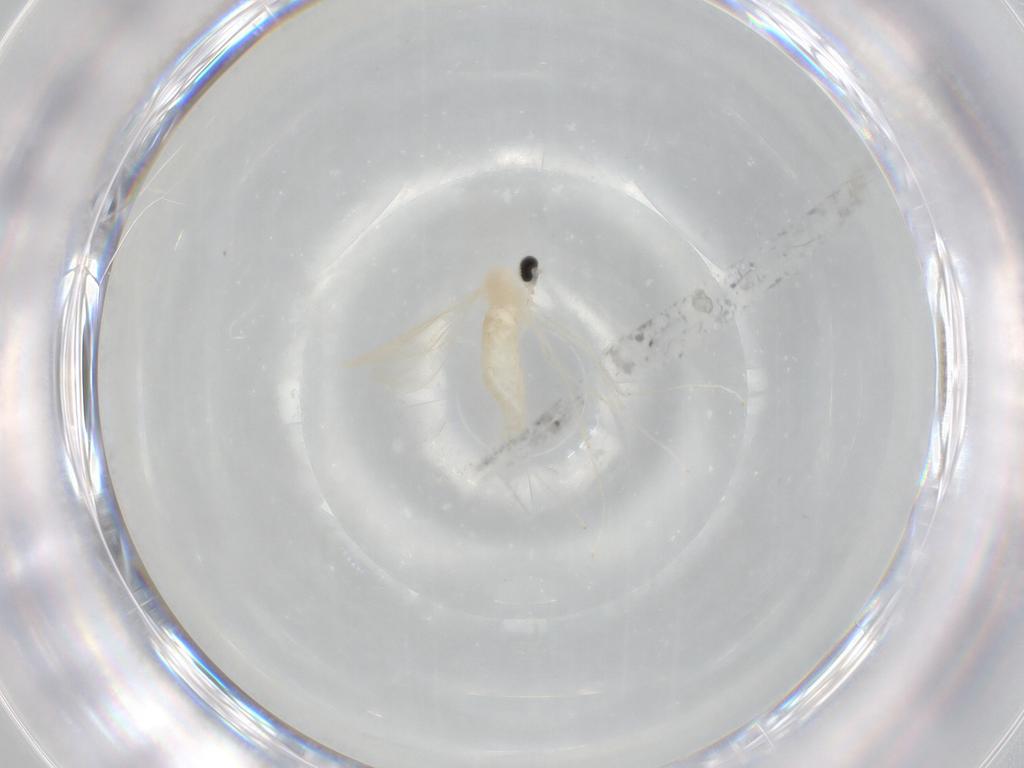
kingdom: Animalia
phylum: Arthropoda
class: Insecta
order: Diptera
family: Cecidomyiidae
